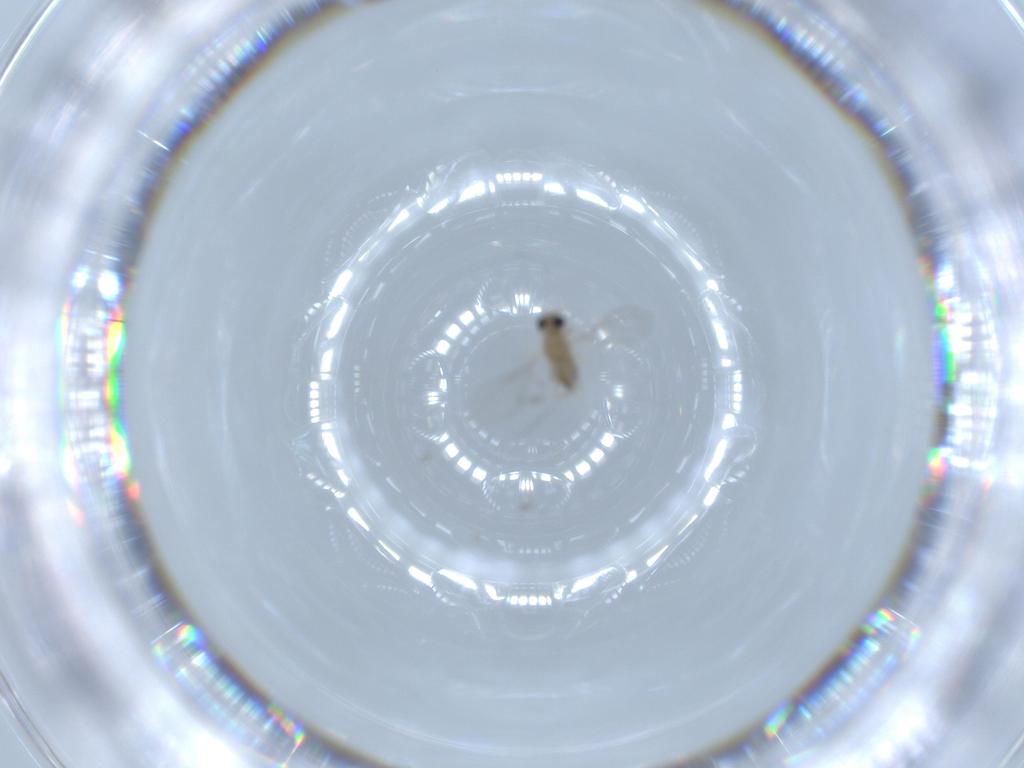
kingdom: Animalia
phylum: Arthropoda
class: Insecta
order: Diptera
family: Cecidomyiidae
